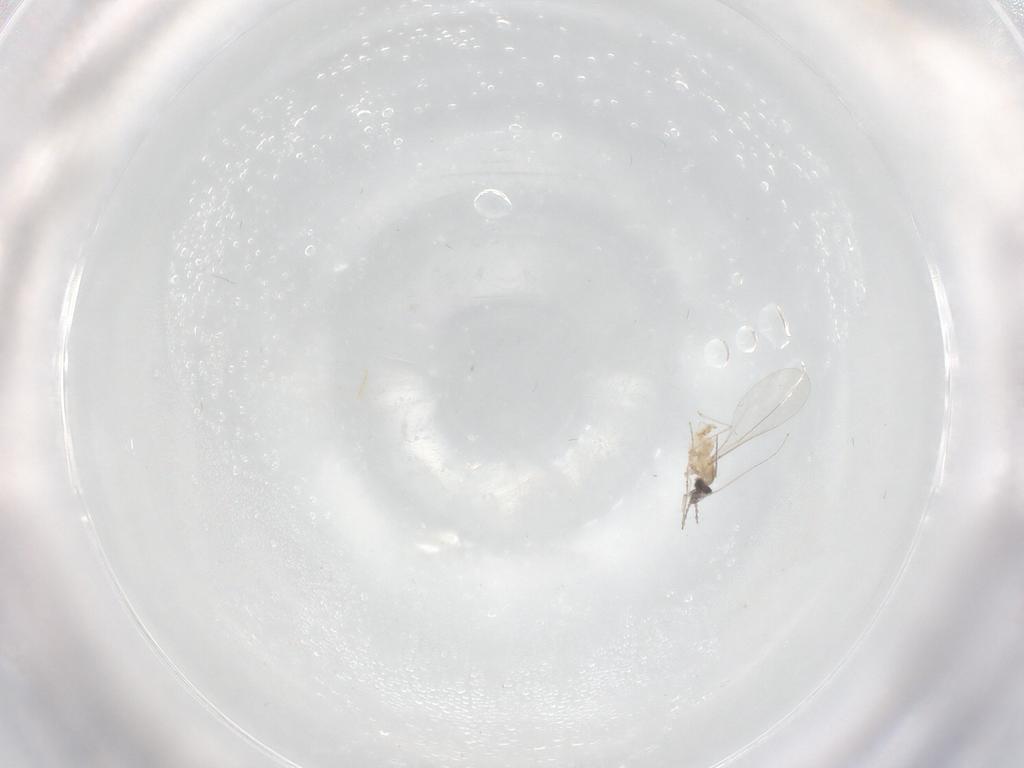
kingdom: Animalia
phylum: Arthropoda
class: Insecta
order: Diptera
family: Cecidomyiidae
